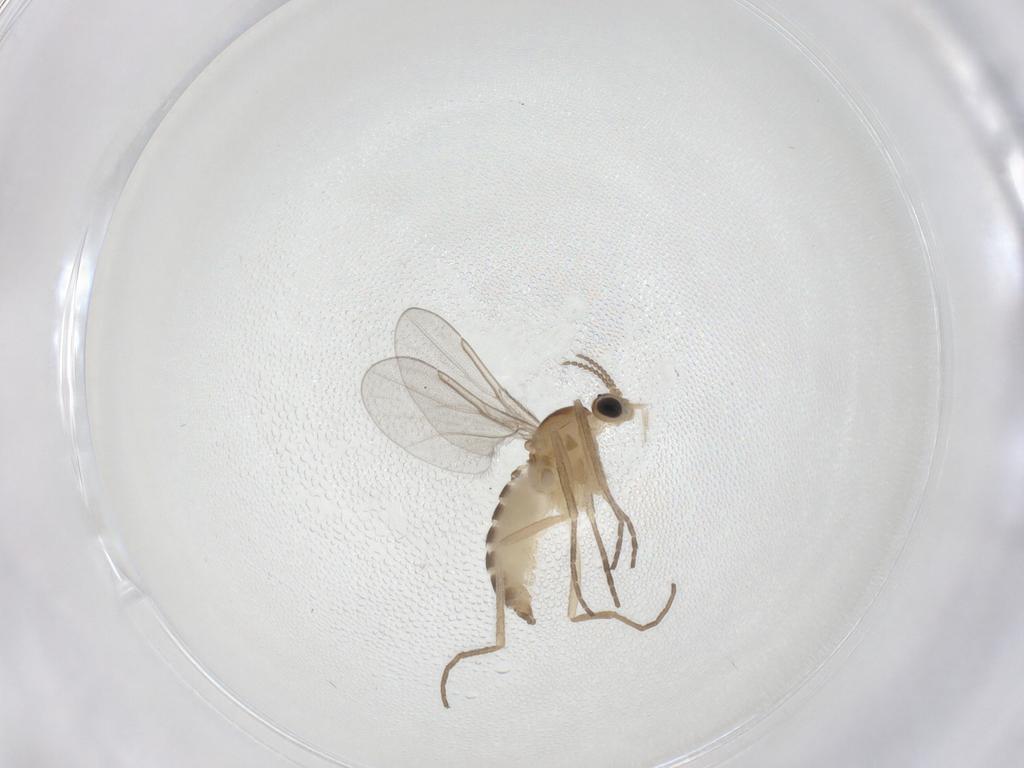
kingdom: Animalia
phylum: Arthropoda
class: Insecta
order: Diptera
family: Cecidomyiidae
